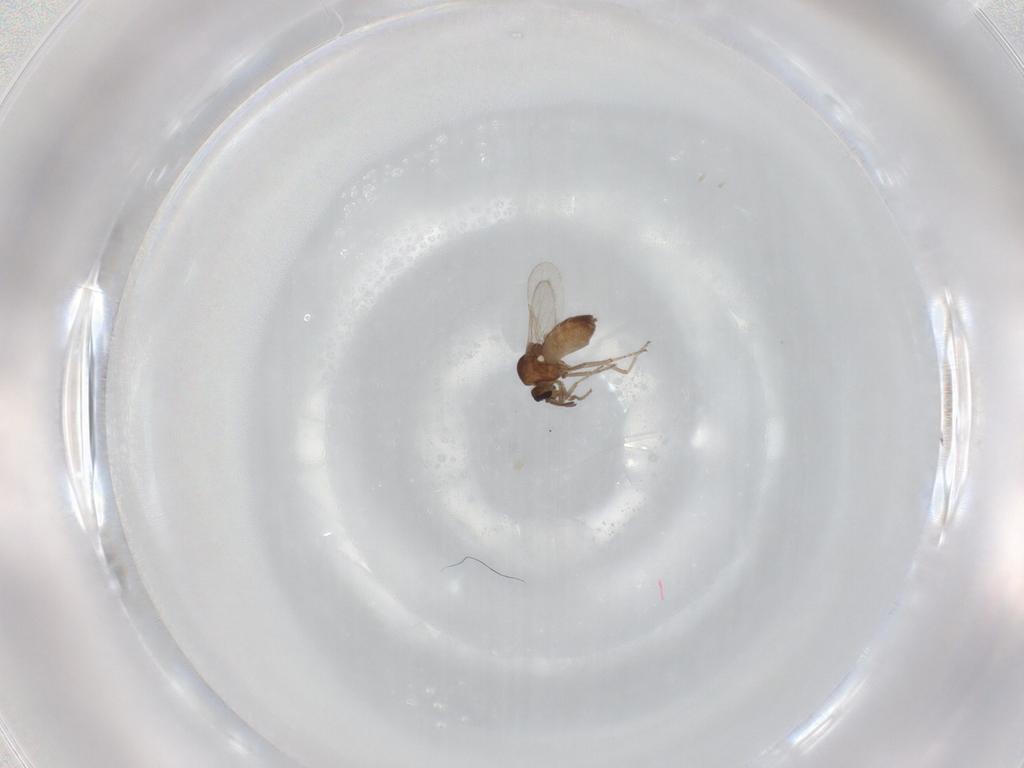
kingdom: Animalia
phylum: Arthropoda
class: Insecta
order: Diptera
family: Ceratopogonidae
